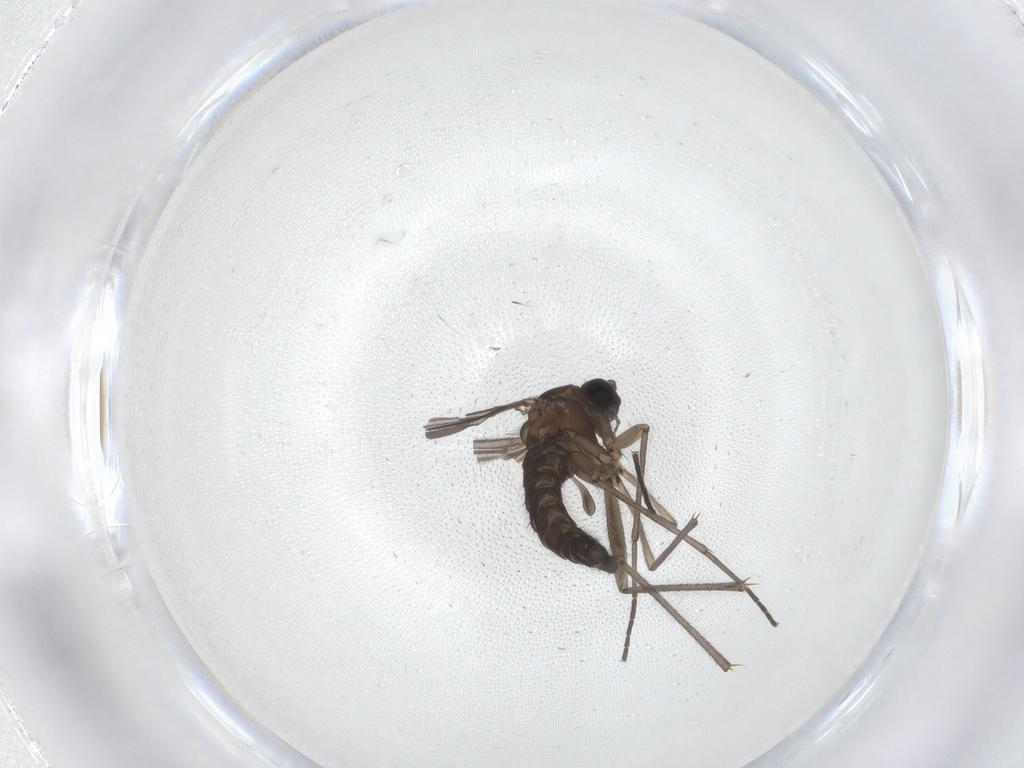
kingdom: Animalia
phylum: Arthropoda
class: Insecta
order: Diptera
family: Sciaridae
